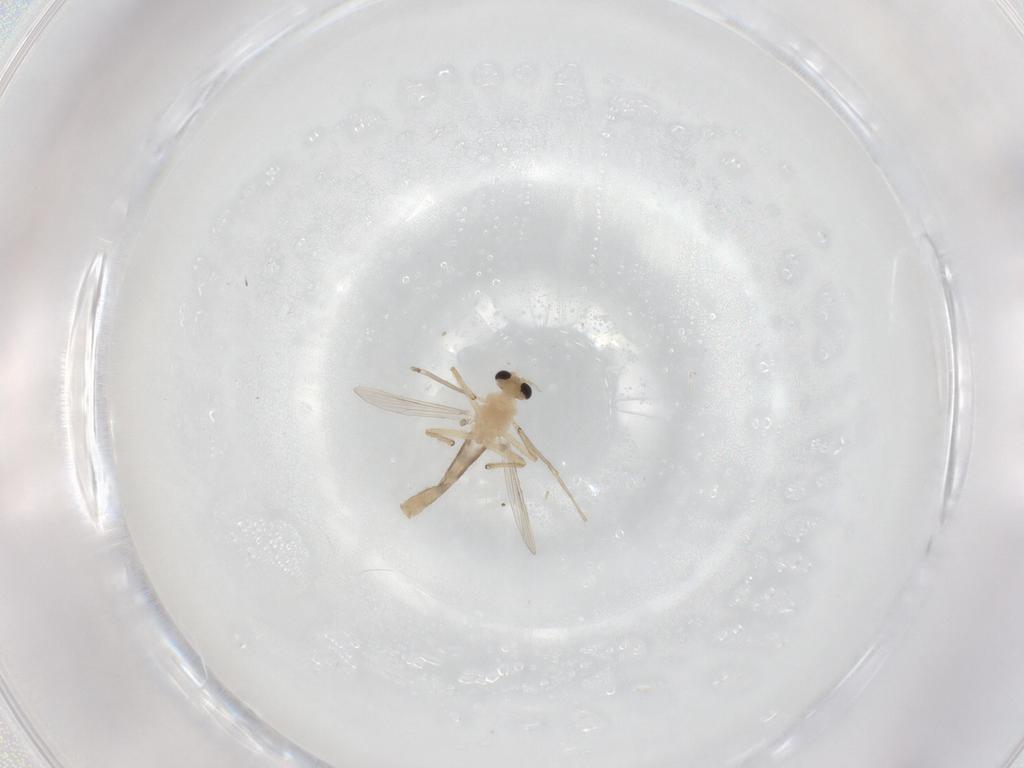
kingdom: Animalia
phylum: Arthropoda
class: Insecta
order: Diptera
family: Chironomidae
